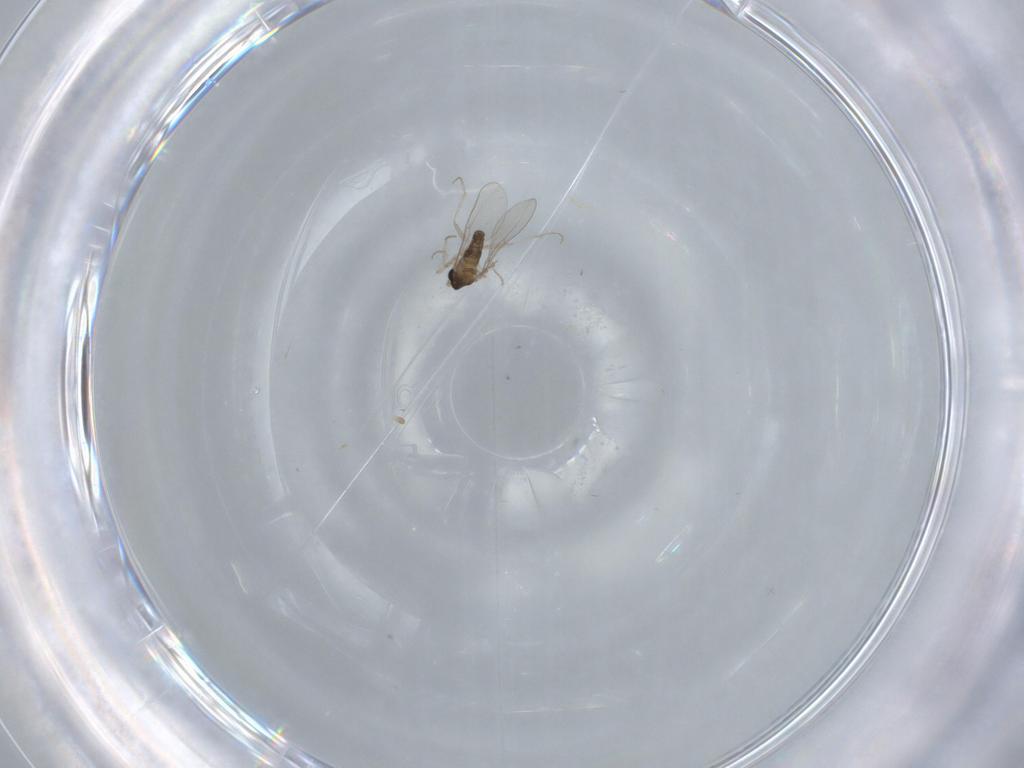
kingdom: Animalia
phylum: Arthropoda
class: Insecta
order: Diptera
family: Cecidomyiidae
